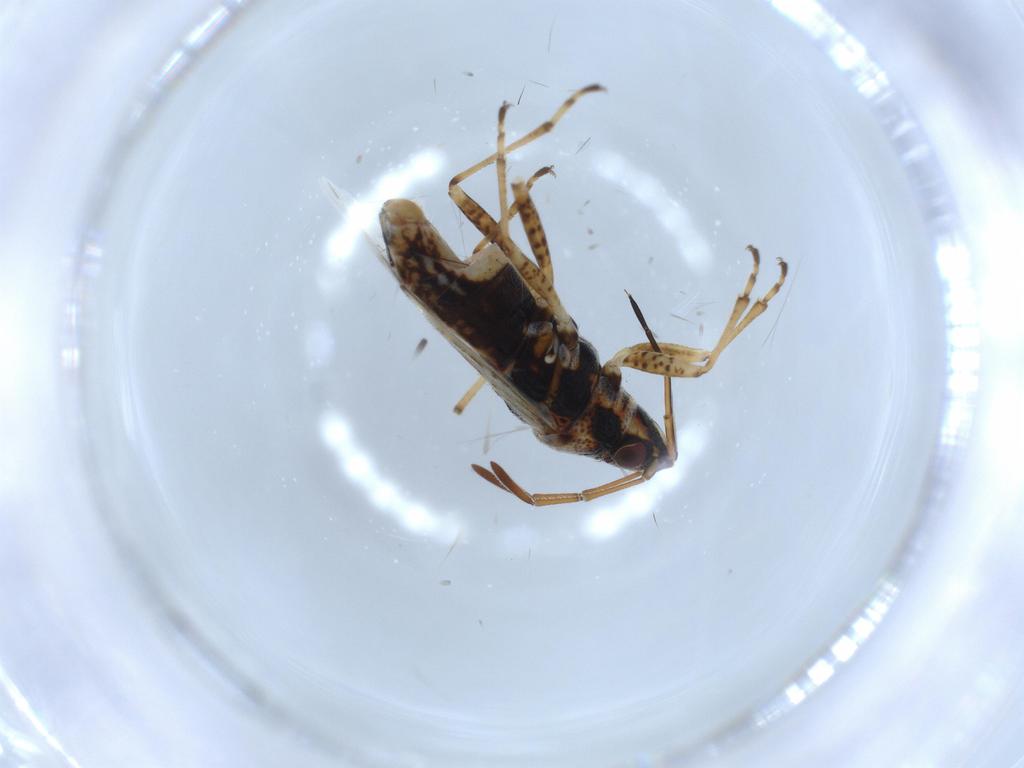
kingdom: Animalia
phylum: Arthropoda
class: Insecta
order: Hemiptera
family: Lygaeidae
